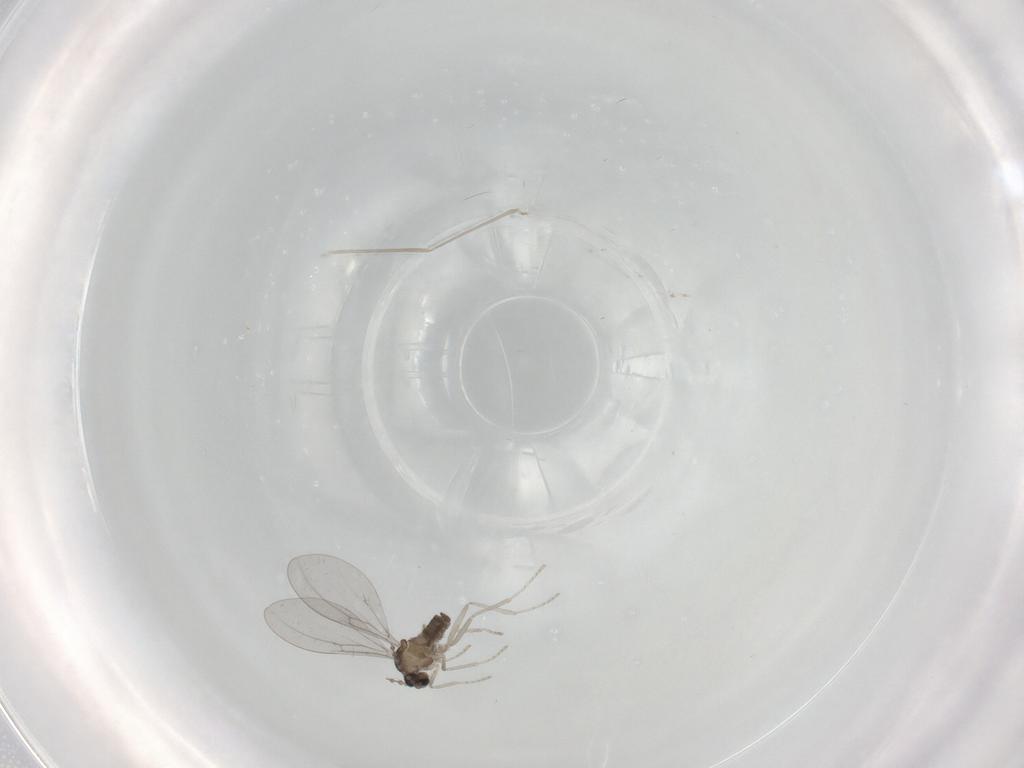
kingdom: Animalia
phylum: Arthropoda
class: Insecta
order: Diptera
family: Cecidomyiidae
